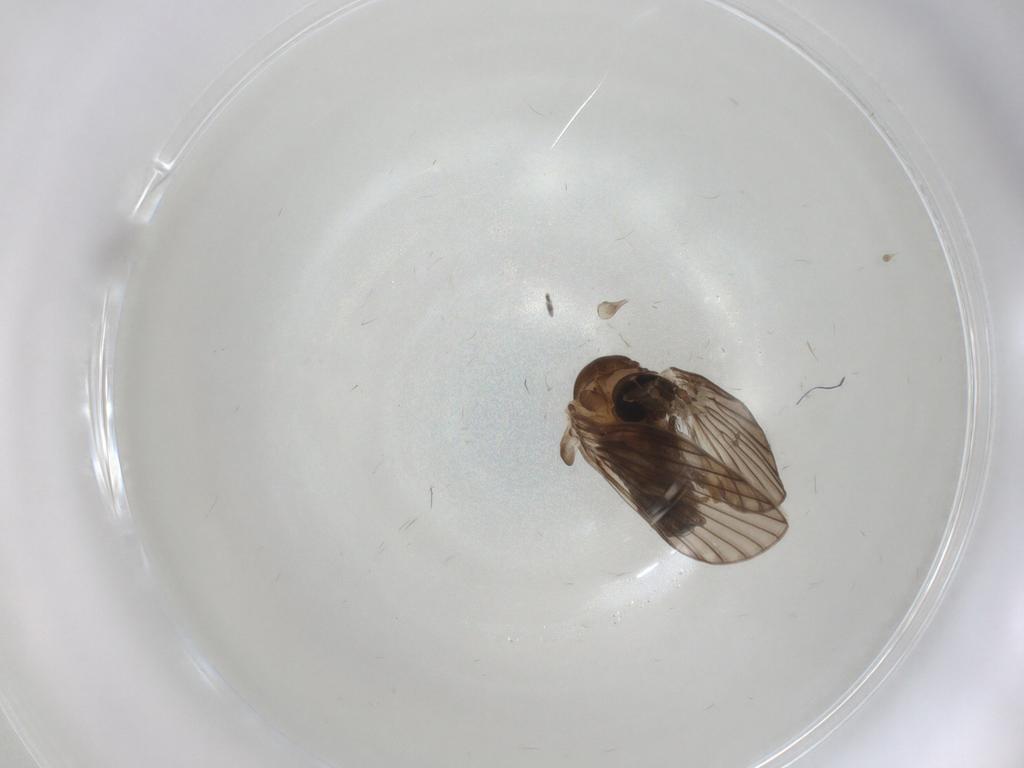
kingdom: Animalia
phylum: Arthropoda
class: Insecta
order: Diptera
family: Psychodidae
